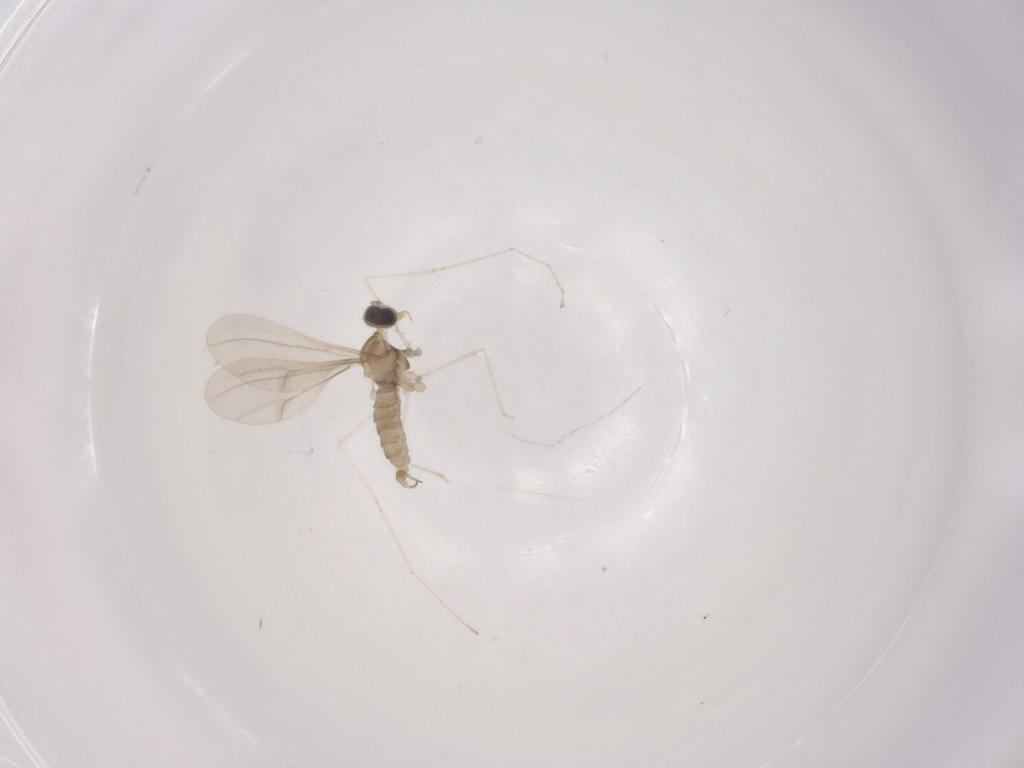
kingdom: Animalia
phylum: Arthropoda
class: Insecta
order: Diptera
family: Cecidomyiidae
